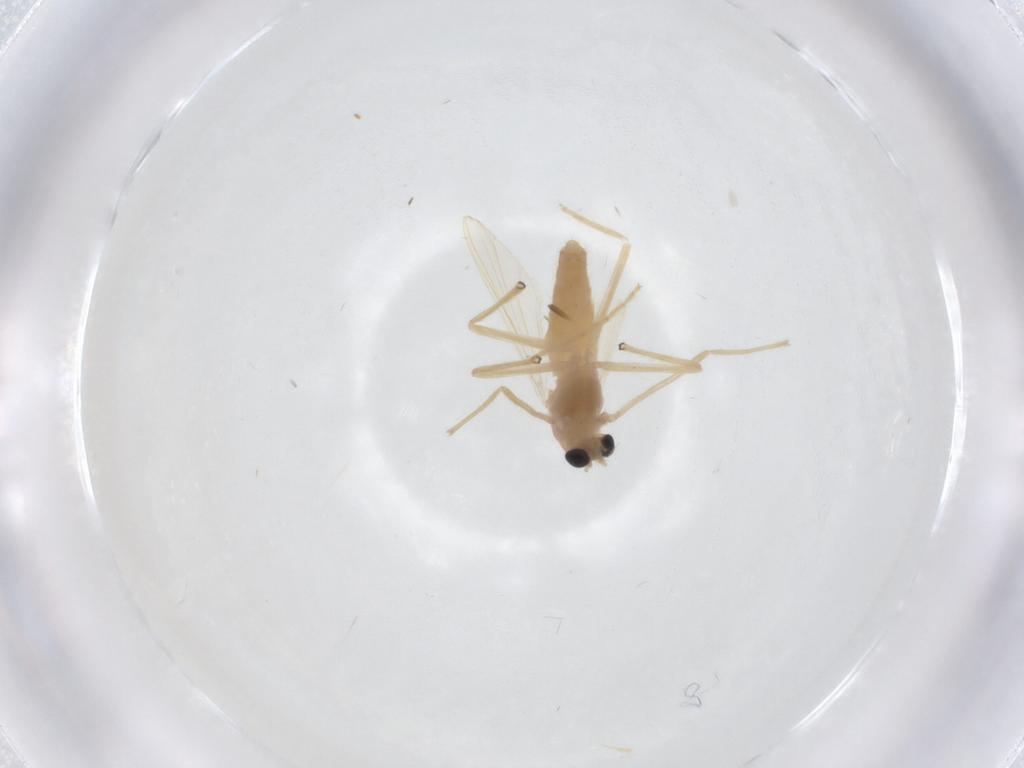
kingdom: Animalia
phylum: Arthropoda
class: Insecta
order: Diptera
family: Chironomidae
